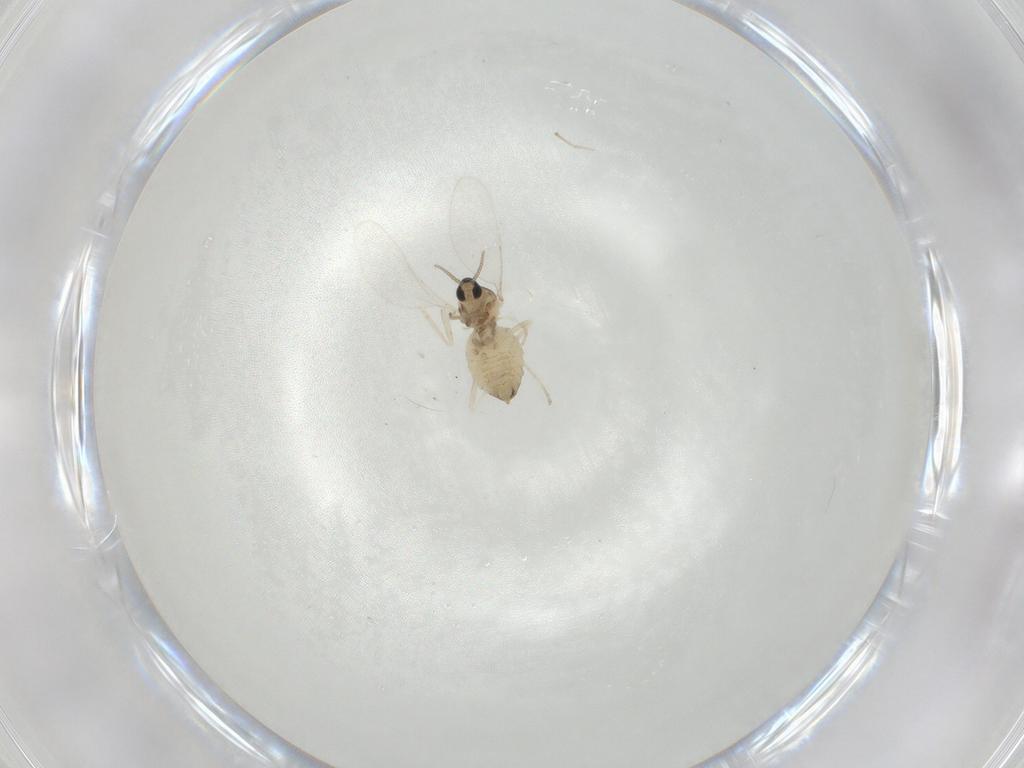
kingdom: Animalia
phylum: Arthropoda
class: Insecta
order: Diptera
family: Cecidomyiidae
